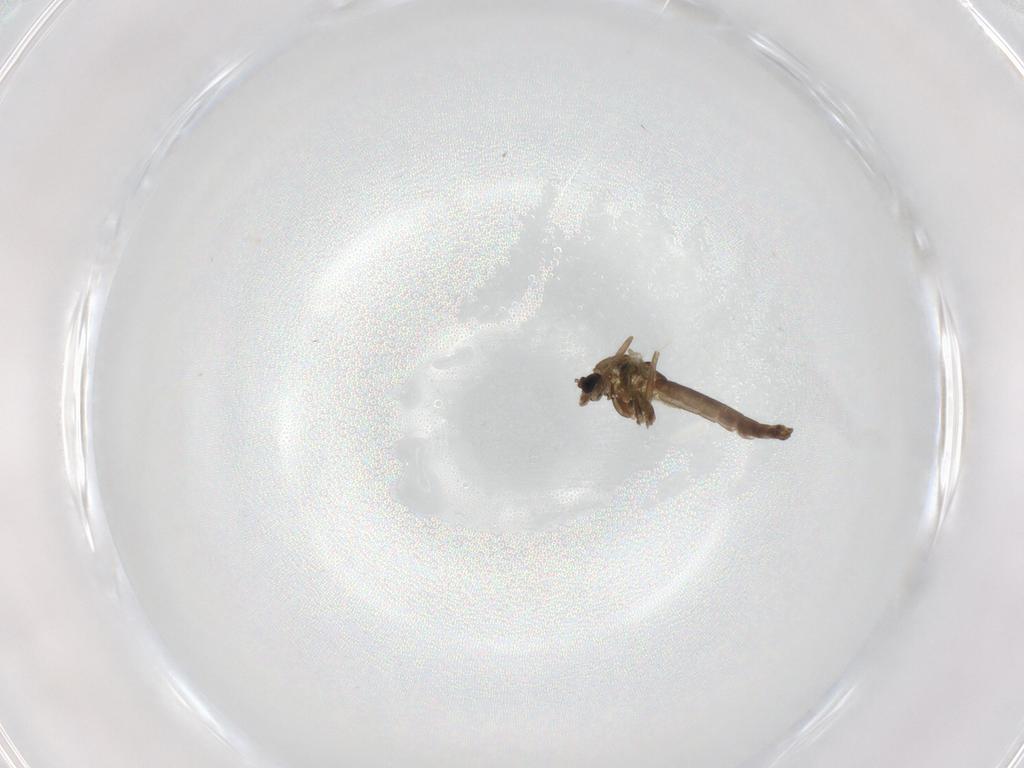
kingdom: Animalia
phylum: Arthropoda
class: Insecta
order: Diptera
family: Chironomidae
